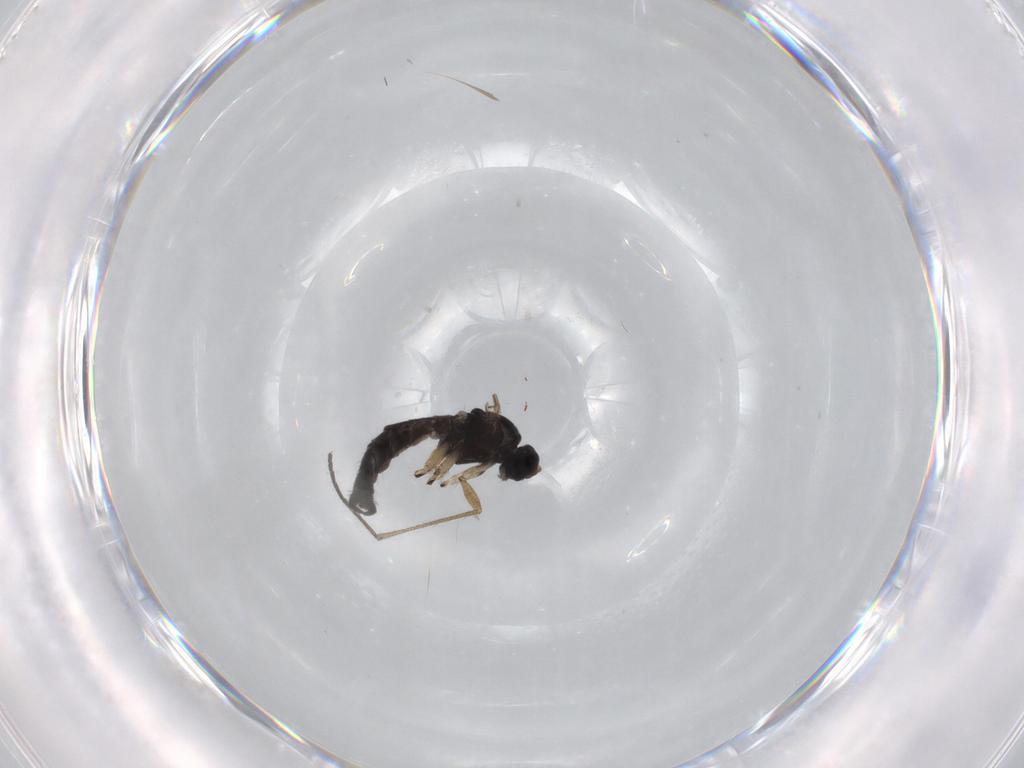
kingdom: Animalia
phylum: Arthropoda
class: Insecta
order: Diptera
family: Sciaridae
